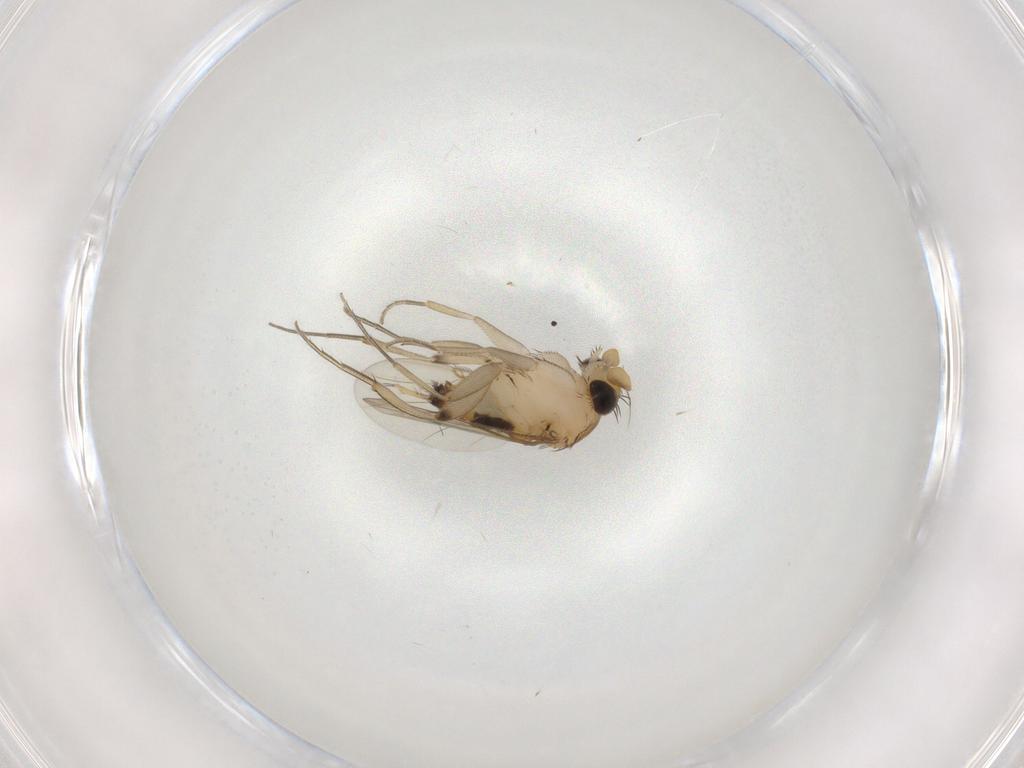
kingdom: Animalia
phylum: Arthropoda
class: Insecta
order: Diptera
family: Phoridae
